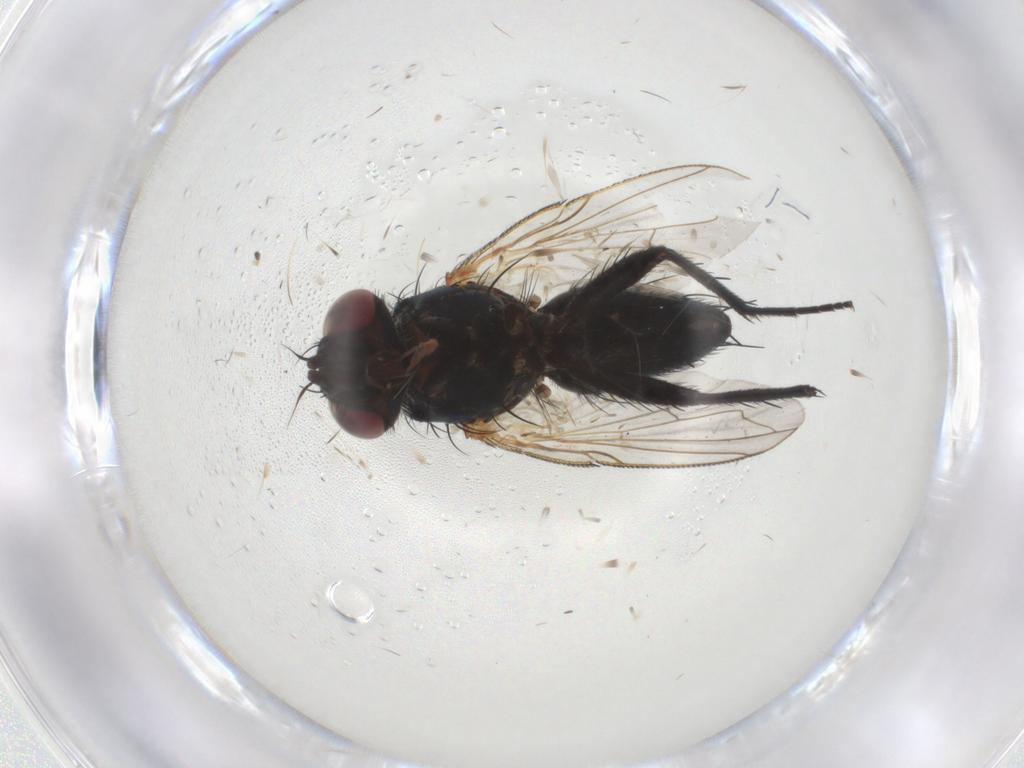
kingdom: Animalia
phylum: Arthropoda
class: Insecta
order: Diptera
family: Tachinidae
